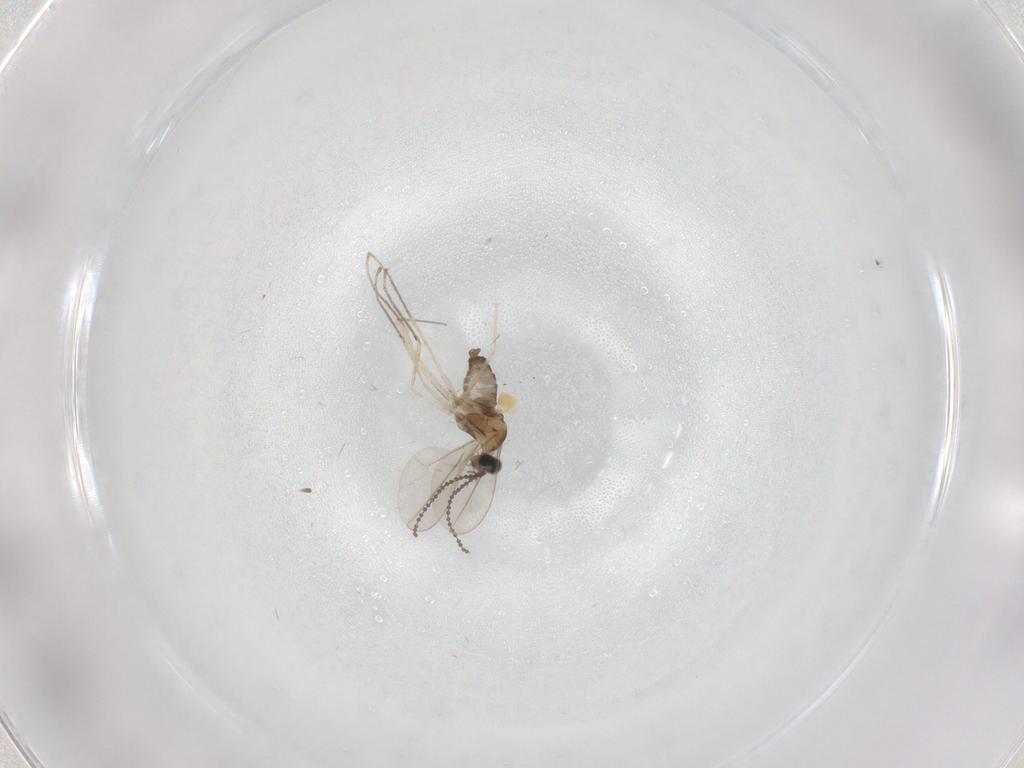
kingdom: Animalia
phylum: Arthropoda
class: Insecta
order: Diptera
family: Cecidomyiidae
